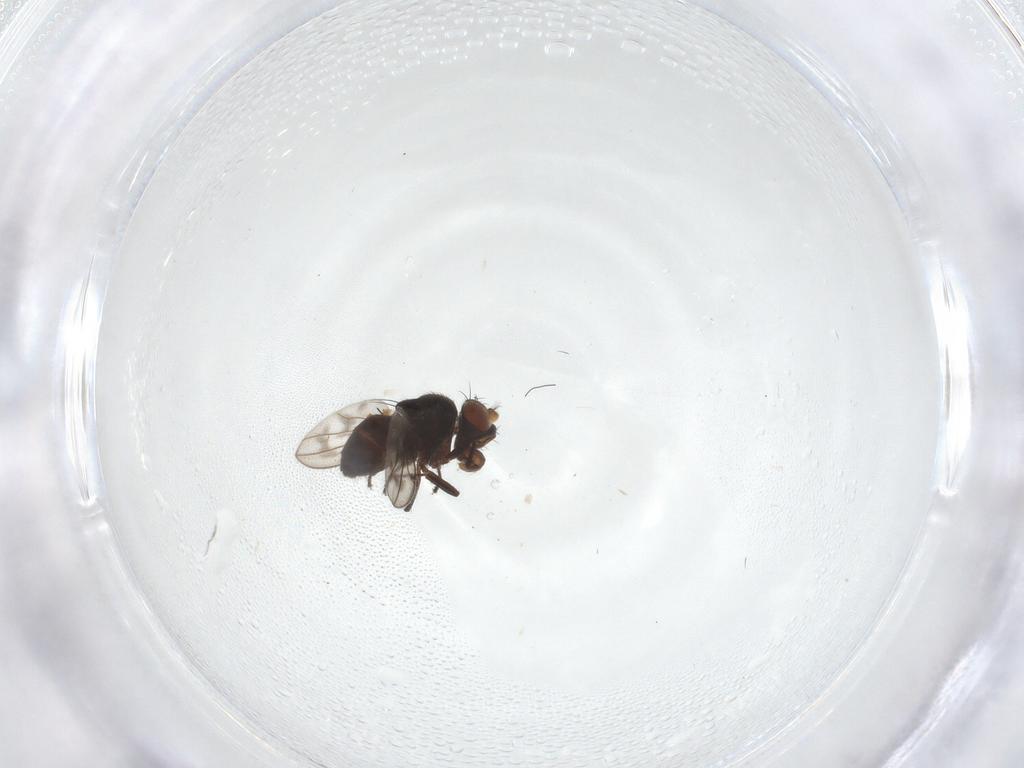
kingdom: Animalia
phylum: Arthropoda
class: Insecta
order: Diptera
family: Ephydridae
